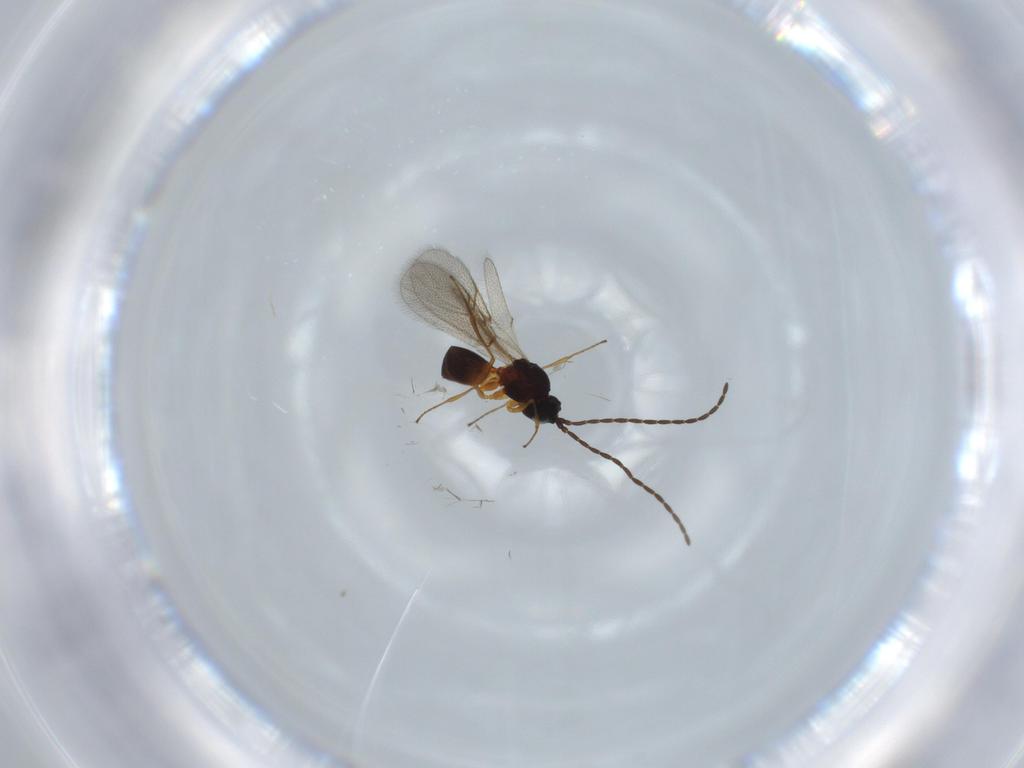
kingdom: Animalia
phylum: Arthropoda
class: Insecta
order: Hymenoptera
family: Figitidae
